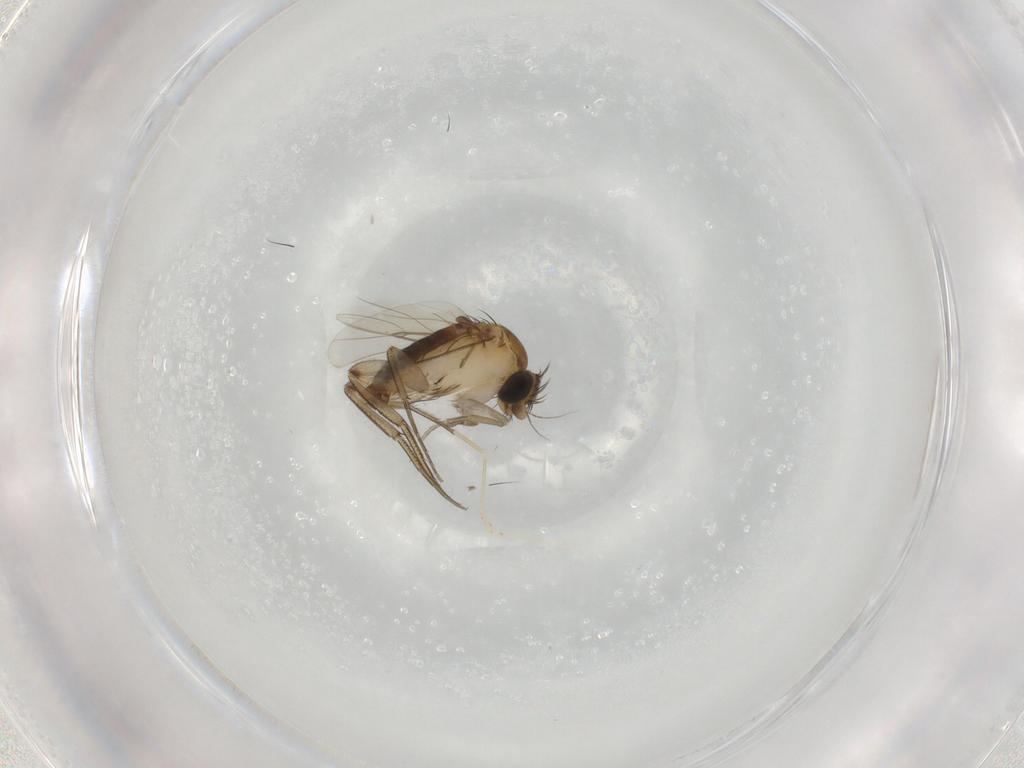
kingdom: Animalia
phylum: Arthropoda
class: Insecta
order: Diptera
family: Phoridae
